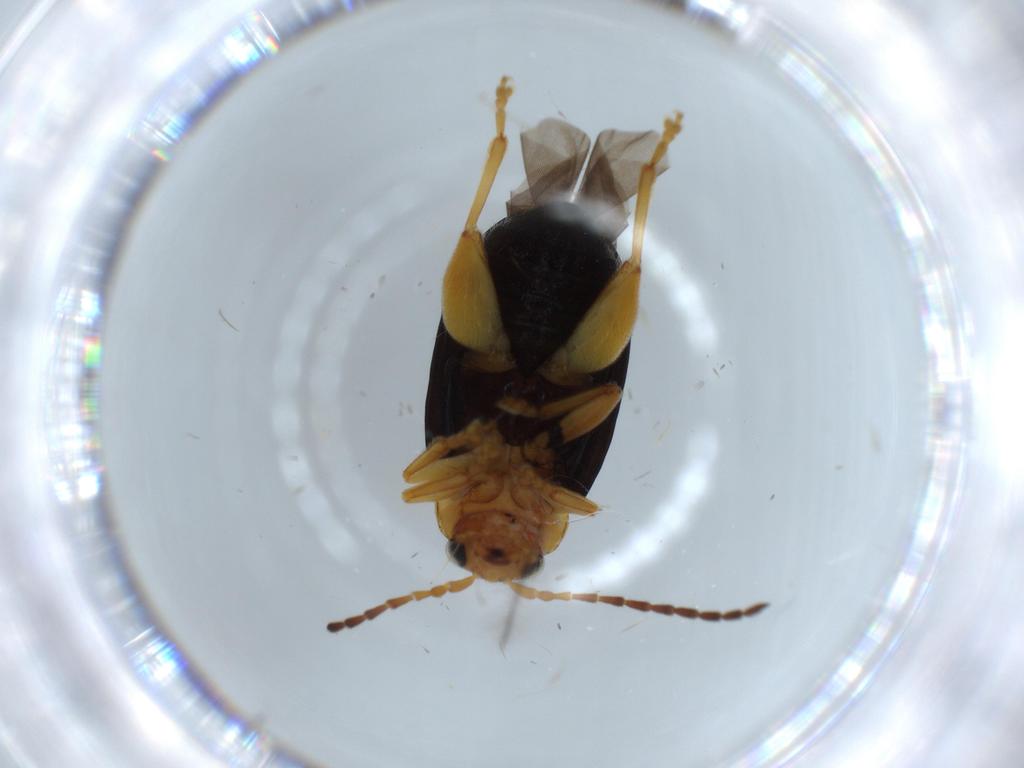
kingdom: Animalia
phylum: Arthropoda
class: Insecta
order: Coleoptera
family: Chrysomelidae
